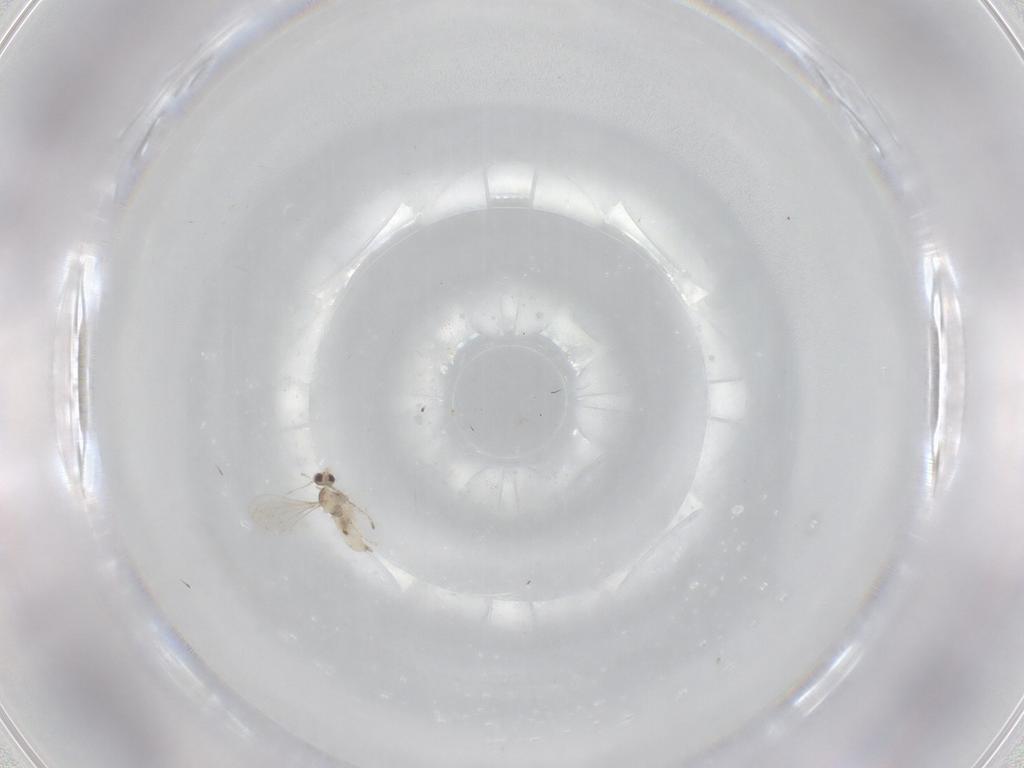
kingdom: Animalia
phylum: Arthropoda
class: Insecta
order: Diptera
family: Cecidomyiidae
